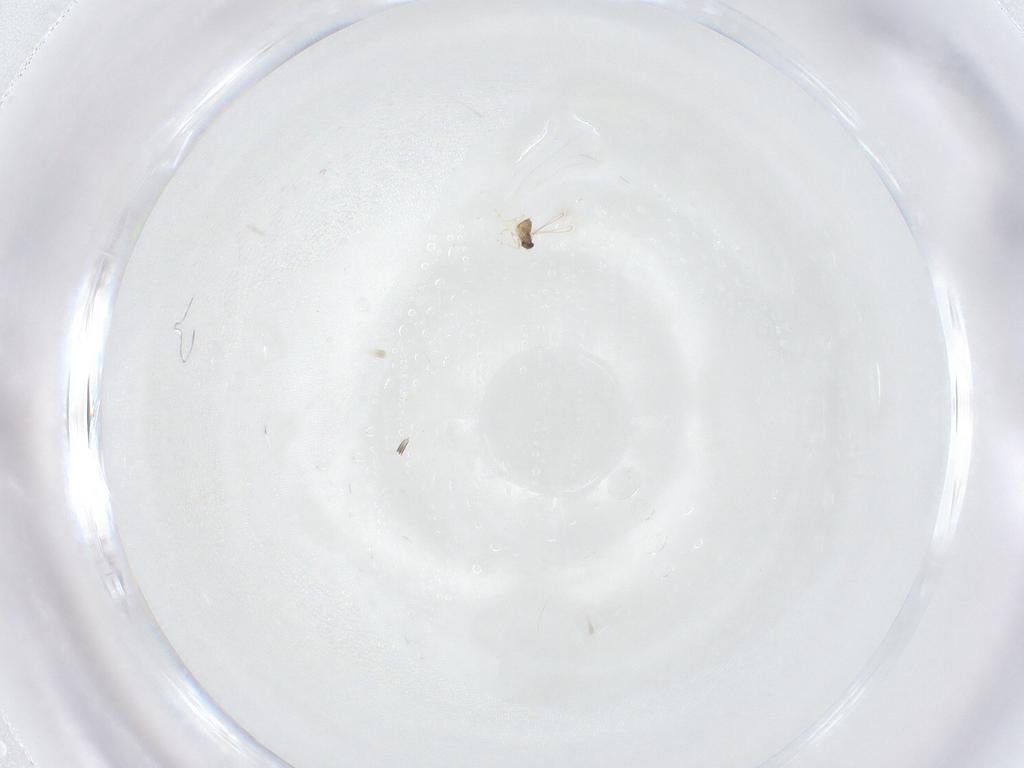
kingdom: Animalia
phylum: Arthropoda
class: Insecta
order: Hymenoptera
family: Mymaridae
